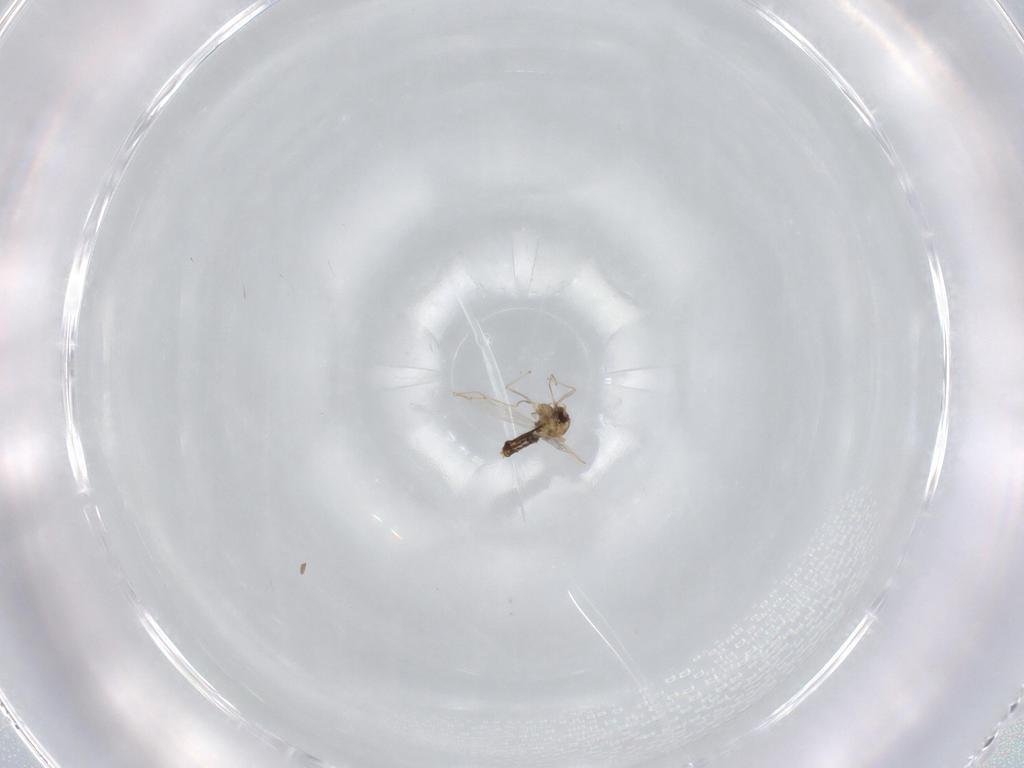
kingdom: Animalia
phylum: Arthropoda
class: Insecta
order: Diptera
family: Chironomidae
